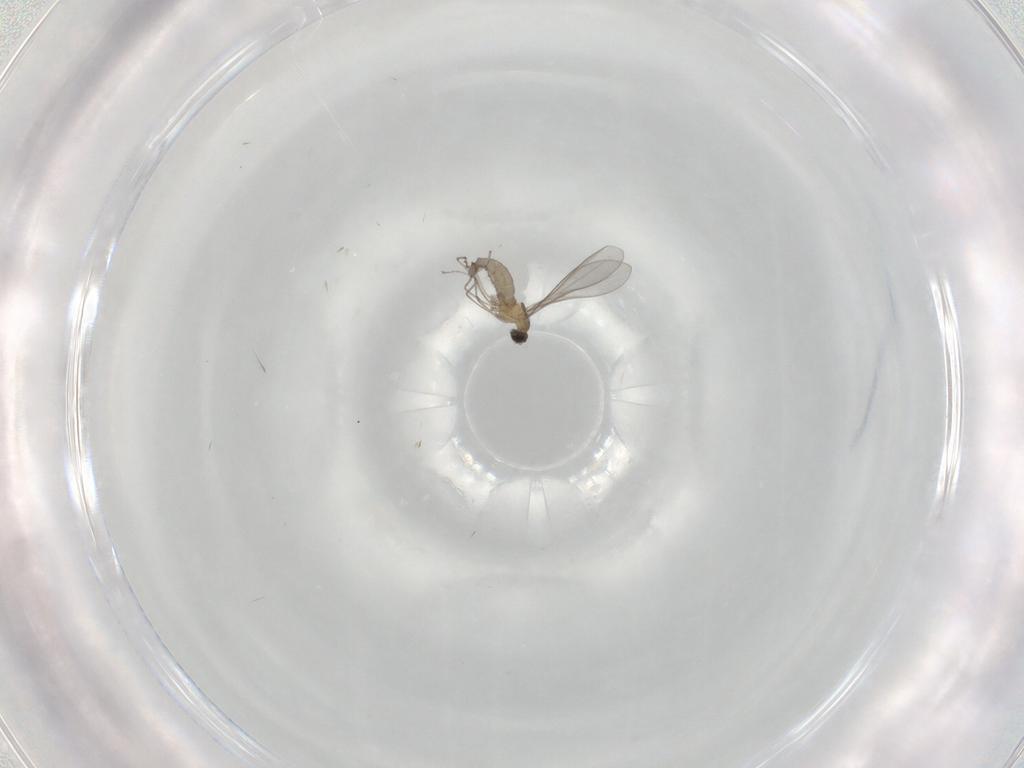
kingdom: Animalia
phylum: Arthropoda
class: Insecta
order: Diptera
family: Cecidomyiidae
